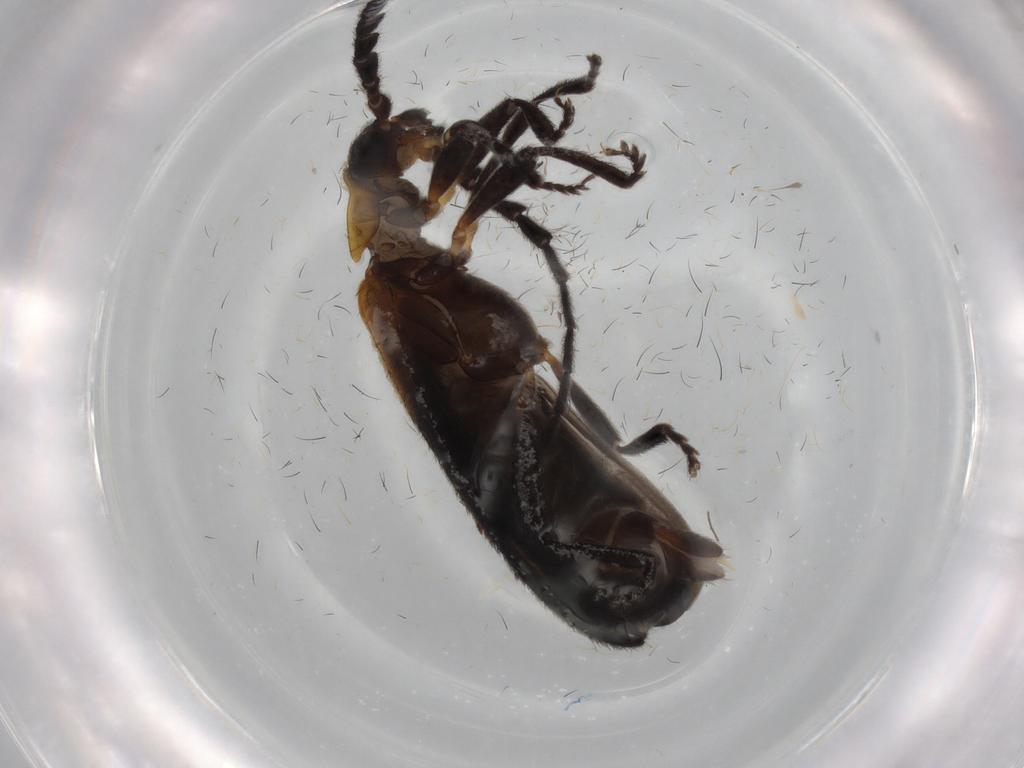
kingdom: Animalia
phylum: Arthropoda
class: Insecta
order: Coleoptera
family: Lycidae
